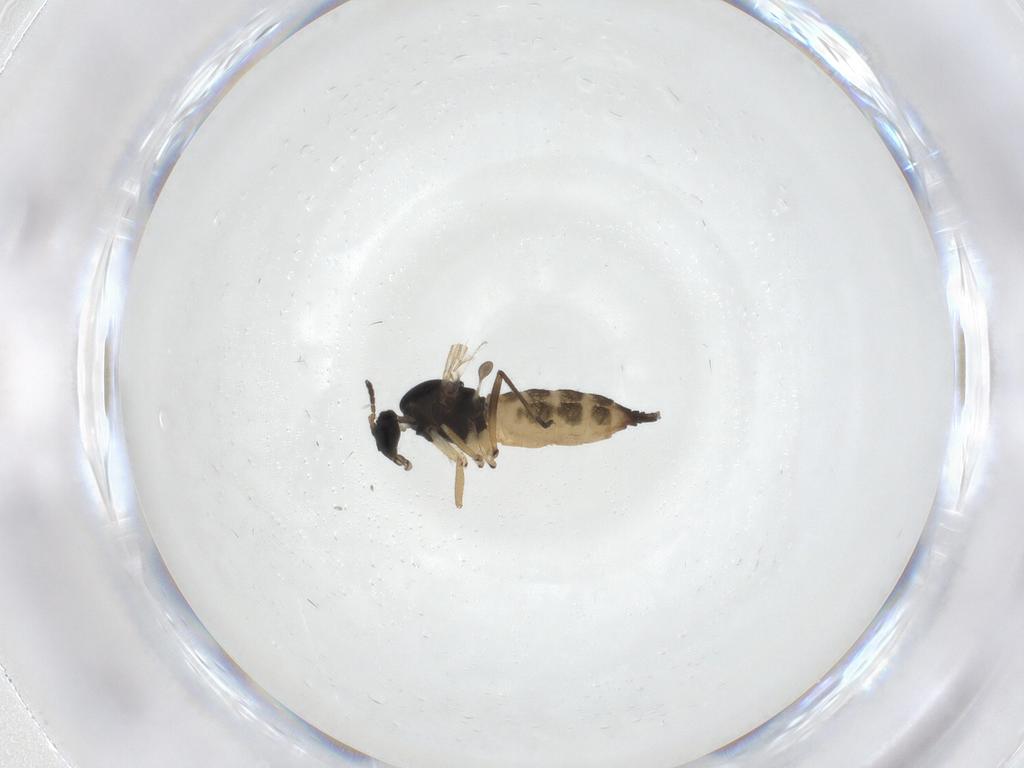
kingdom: Animalia
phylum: Arthropoda
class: Insecta
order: Diptera
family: Sciaridae
